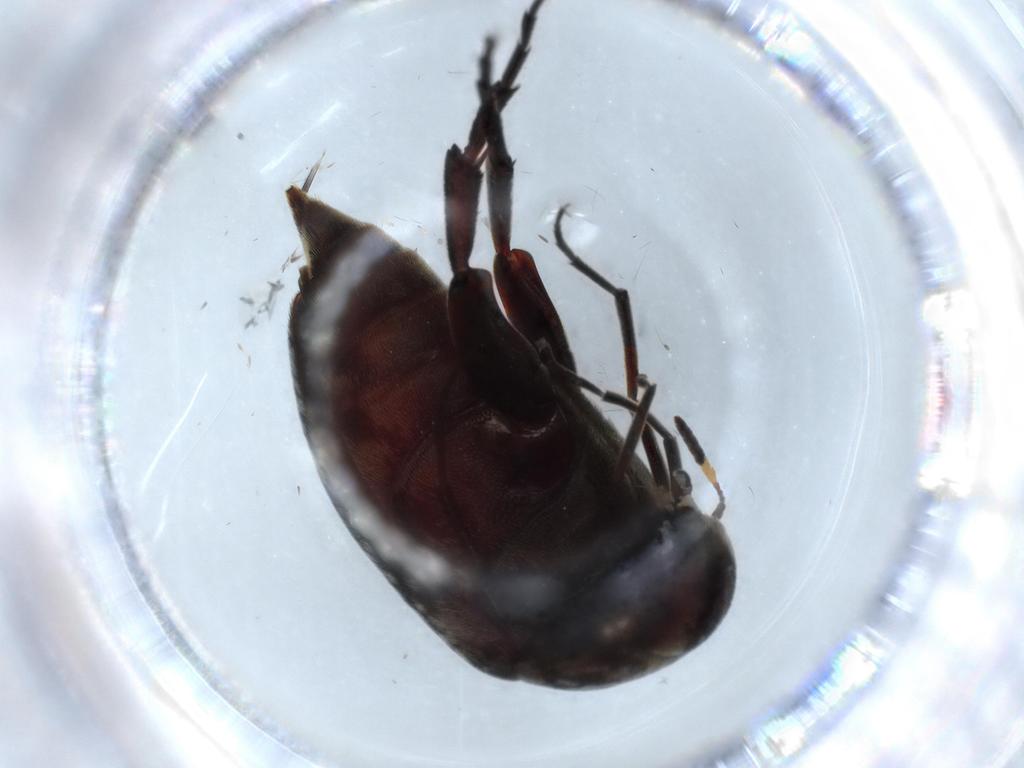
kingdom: Animalia
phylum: Arthropoda
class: Insecta
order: Coleoptera
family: Curculionidae
